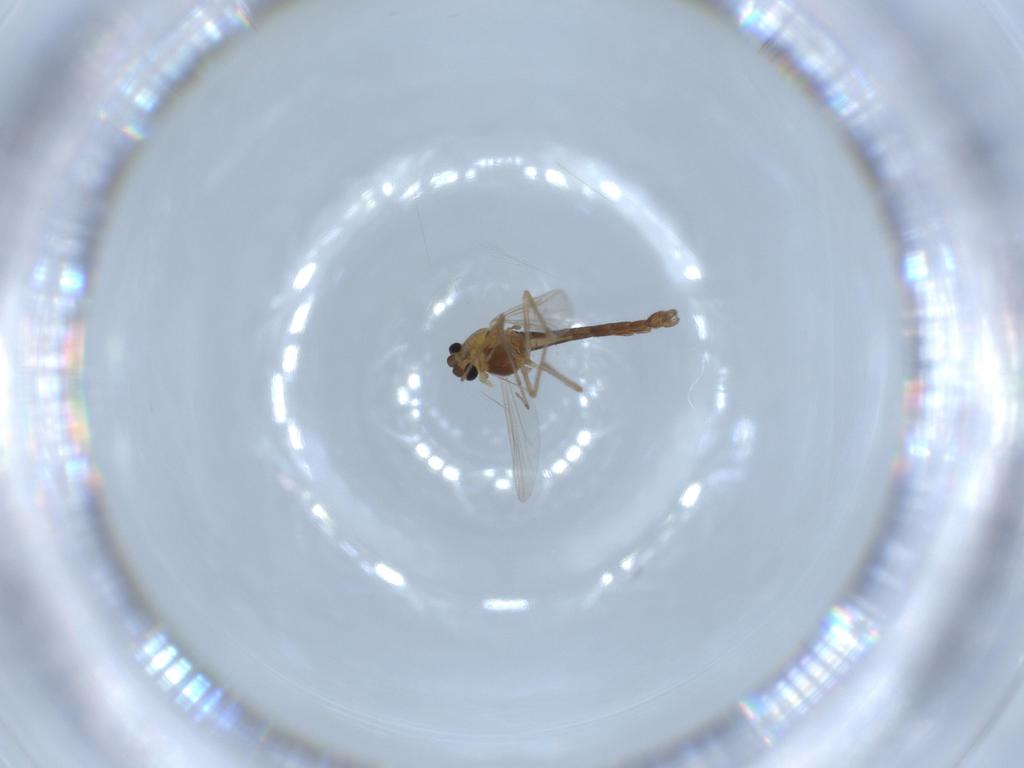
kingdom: Animalia
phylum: Arthropoda
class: Insecta
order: Diptera
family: Chironomidae
